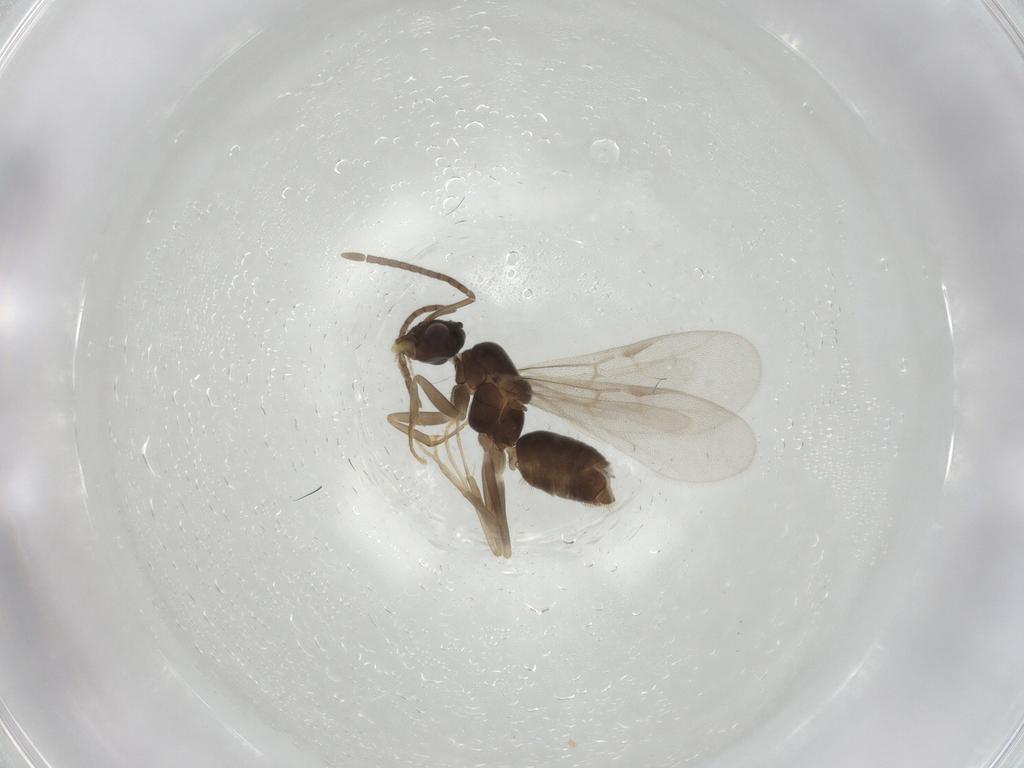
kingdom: Animalia
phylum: Arthropoda
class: Insecta
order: Hymenoptera
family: Formicidae
